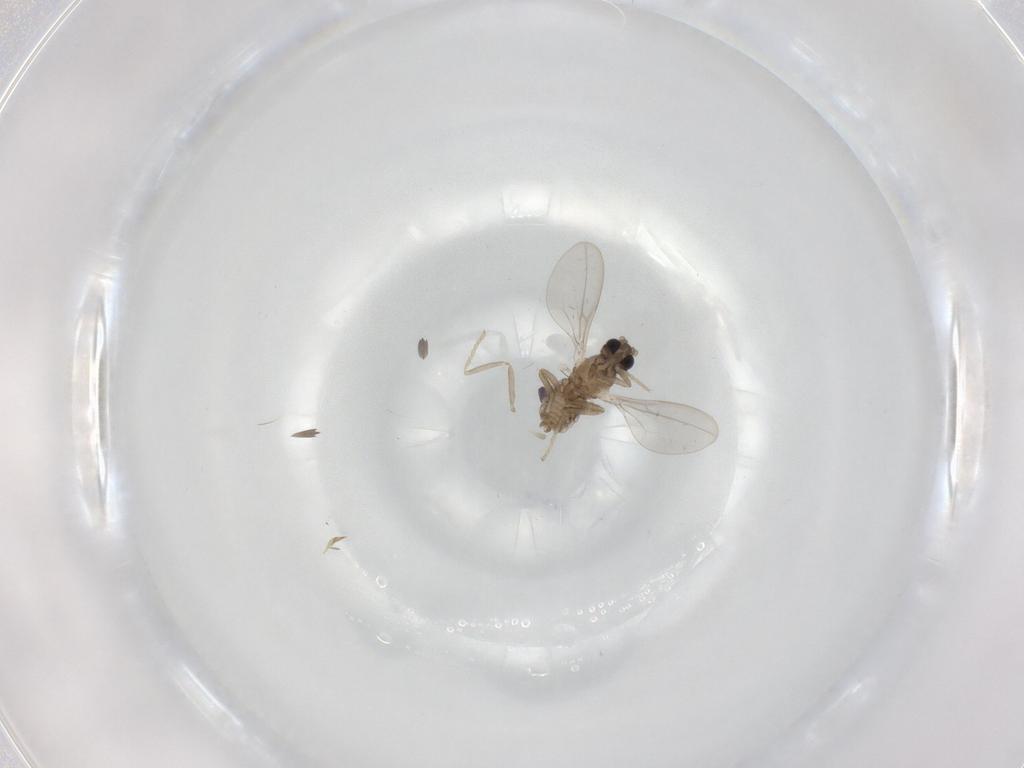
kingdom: Animalia
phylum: Arthropoda
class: Insecta
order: Diptera
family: Cecidomyiidae
